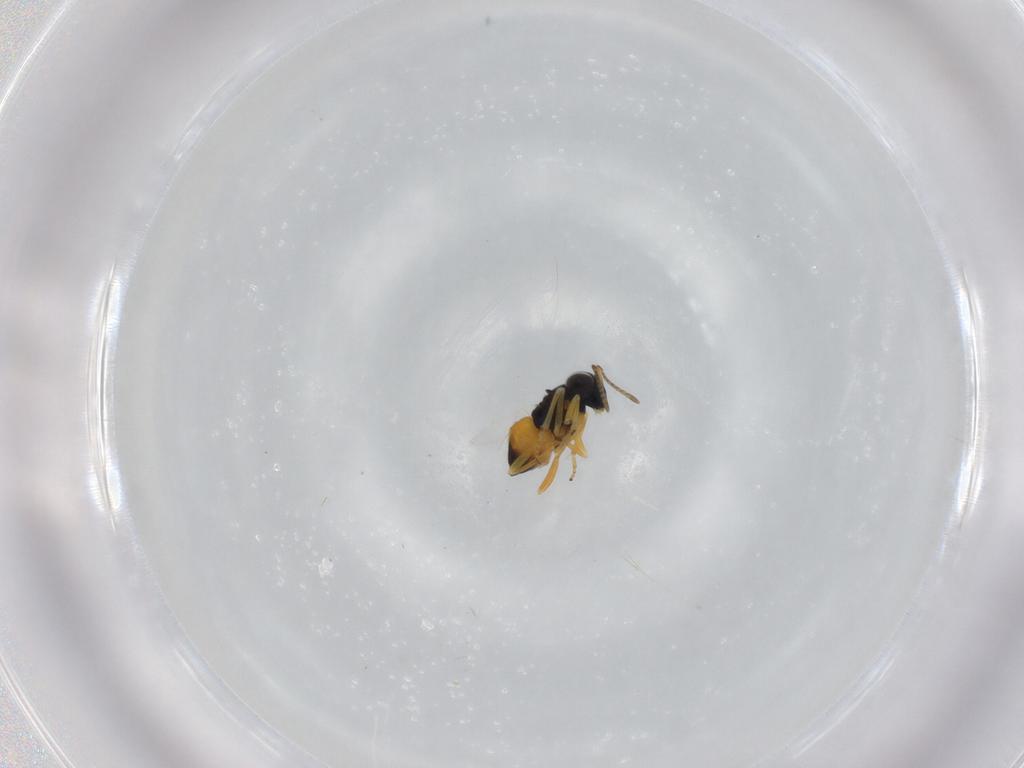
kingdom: Animalia
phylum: Arthropoda
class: Insecta
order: Hymenoptera
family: Encyrtidae
